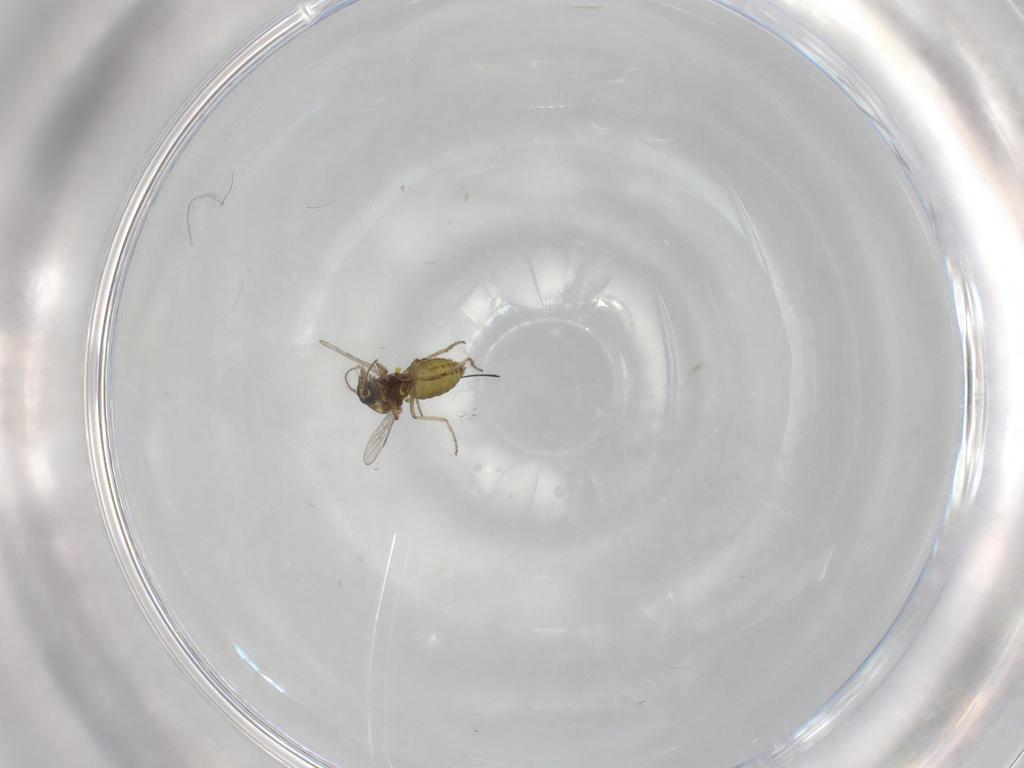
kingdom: Animalia
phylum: Arthropoda
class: Insecta
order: Diptera
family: Ceratopogonidae
